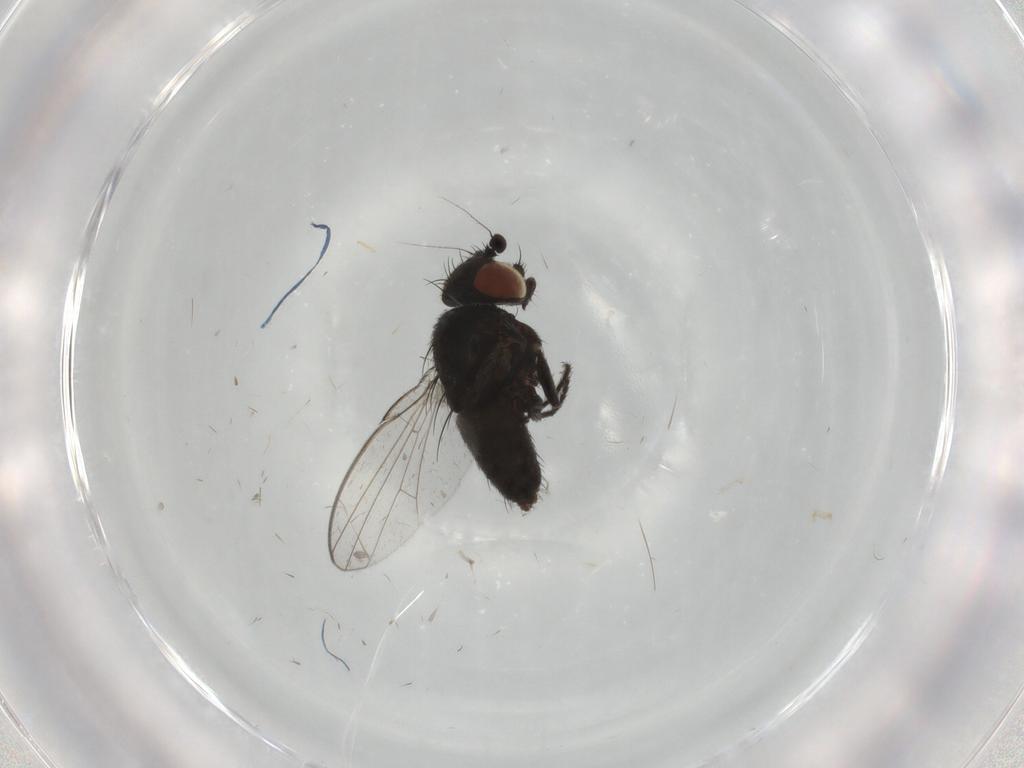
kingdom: Animalia
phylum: Arthropoda
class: Insecta
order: Diptera
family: Milichiidae
